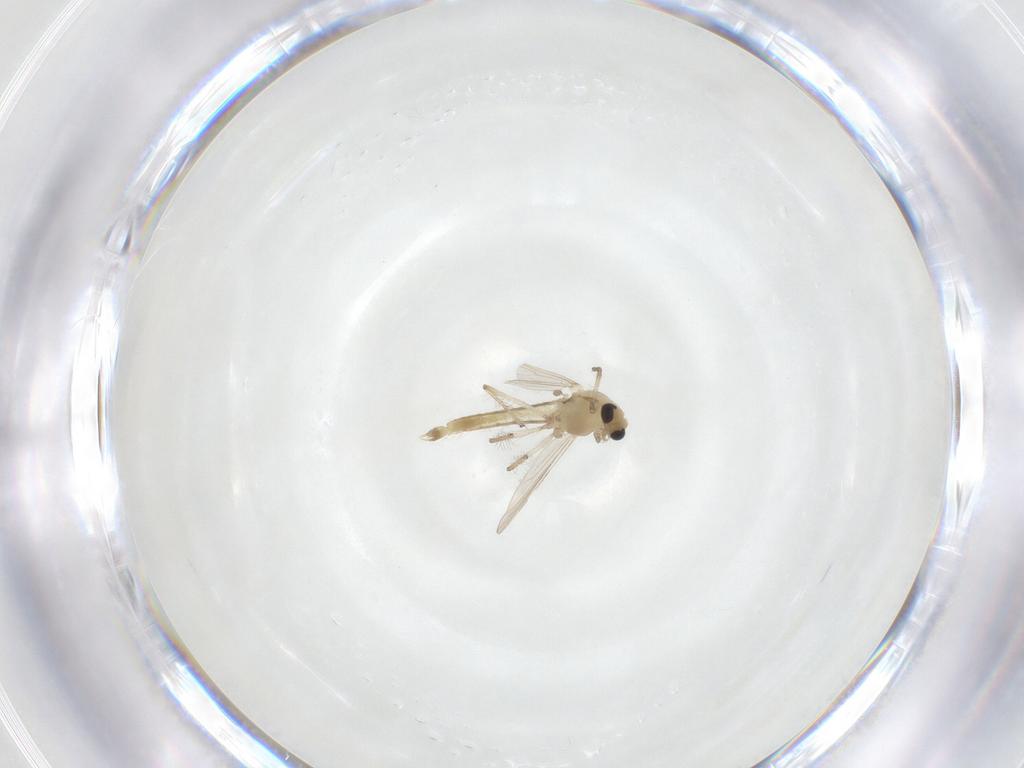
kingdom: Animalia
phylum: Arthropoda
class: Insecta
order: Diptera
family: Chironomidae
